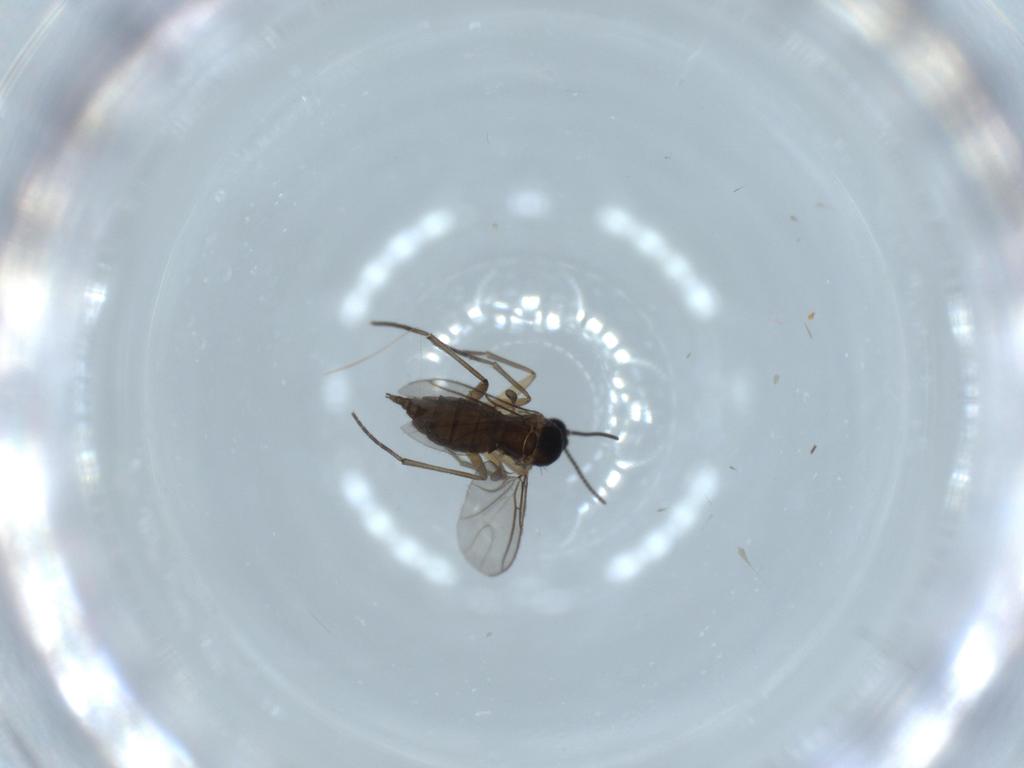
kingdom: Animalia
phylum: Arthropoda
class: Insecta
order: Diptera
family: Sciaridae
